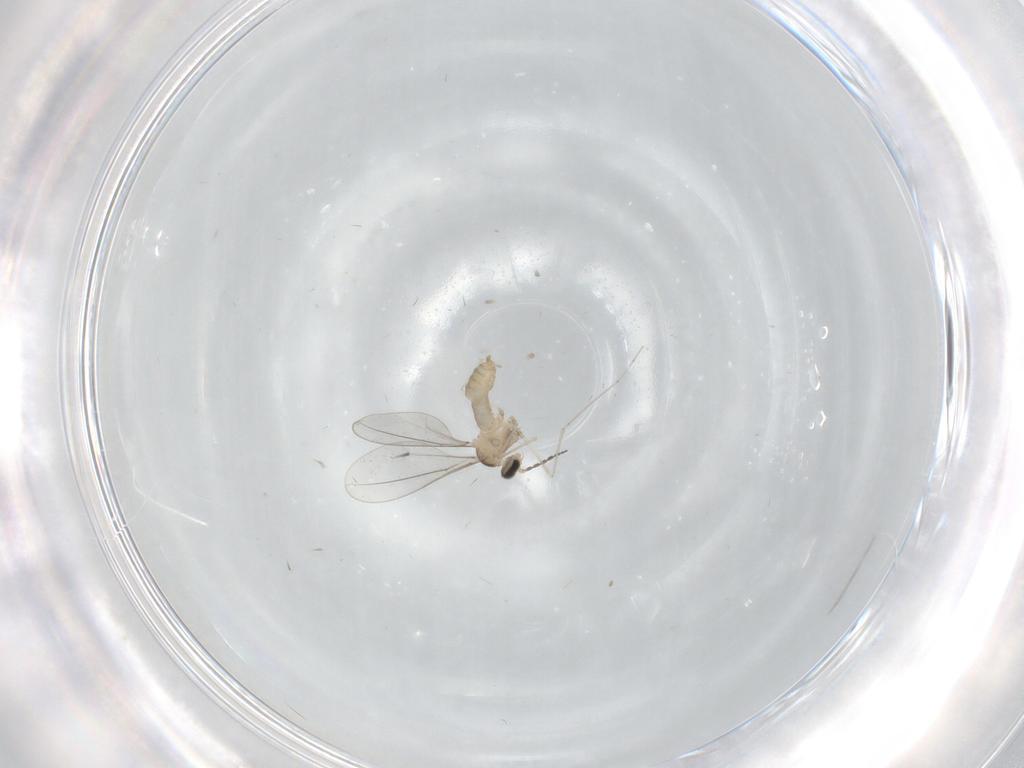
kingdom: Animalia
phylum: Arthropoda
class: Insecta
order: Diptera
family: Cecidomyiidae
